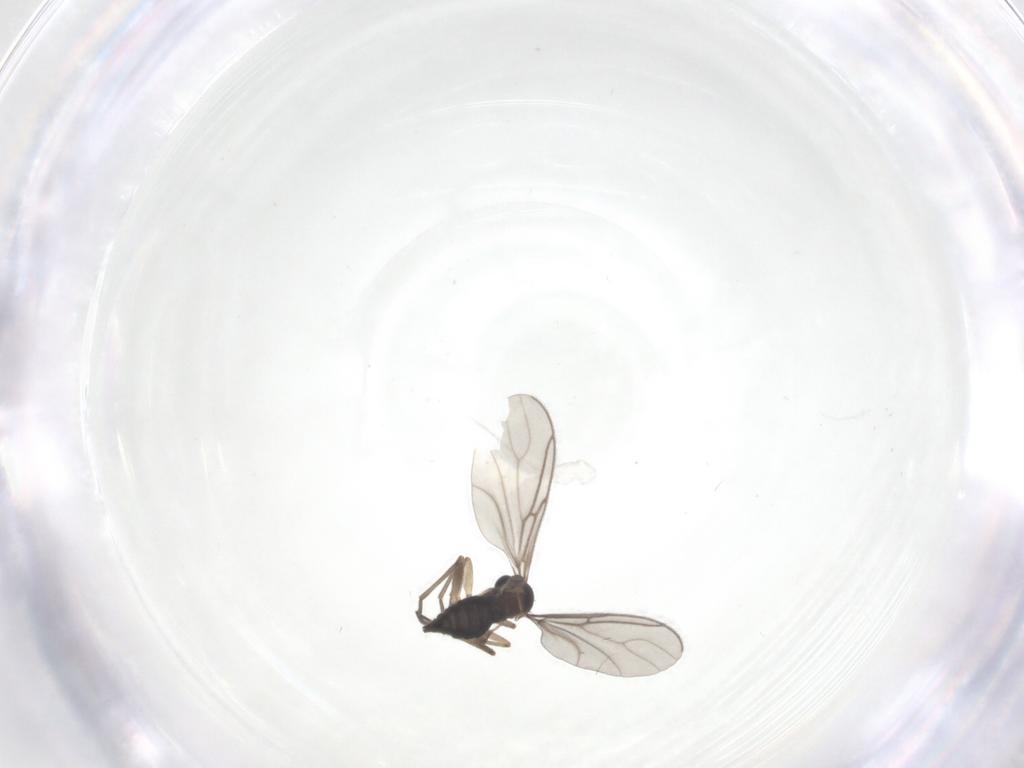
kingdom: Animalia
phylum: Arthropoda
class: Insecta
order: Diptera
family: Sciaridae
